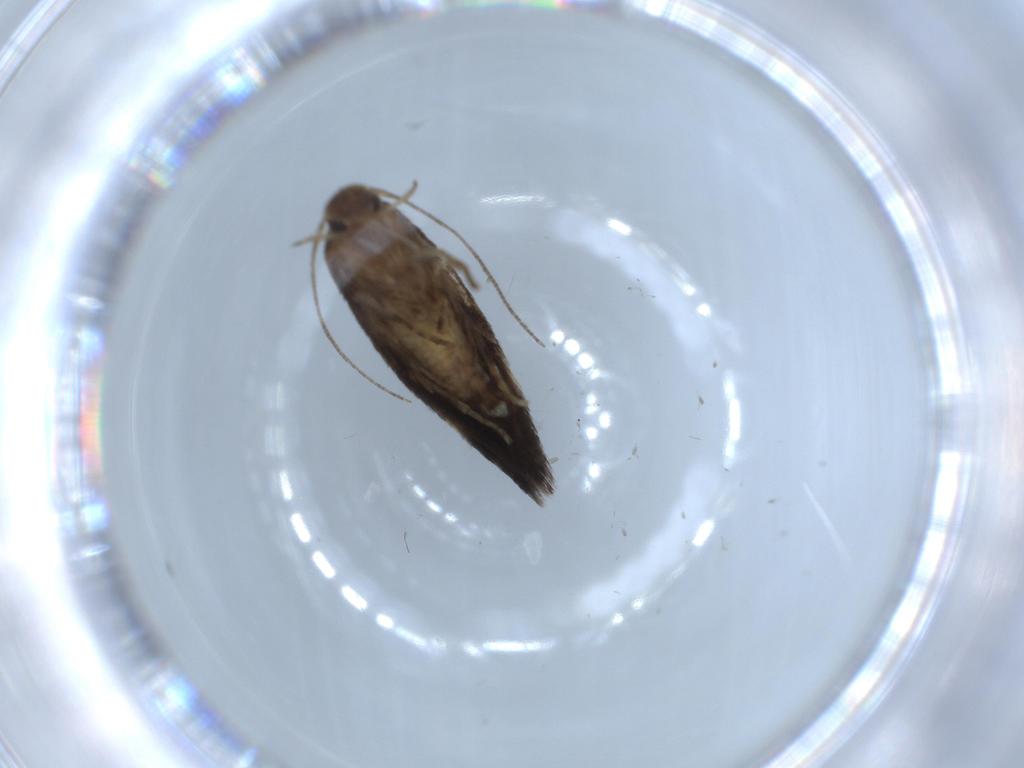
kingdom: Animalia
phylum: Arthropoda
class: Insecta
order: Lepidoptera
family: Gelechiidae
